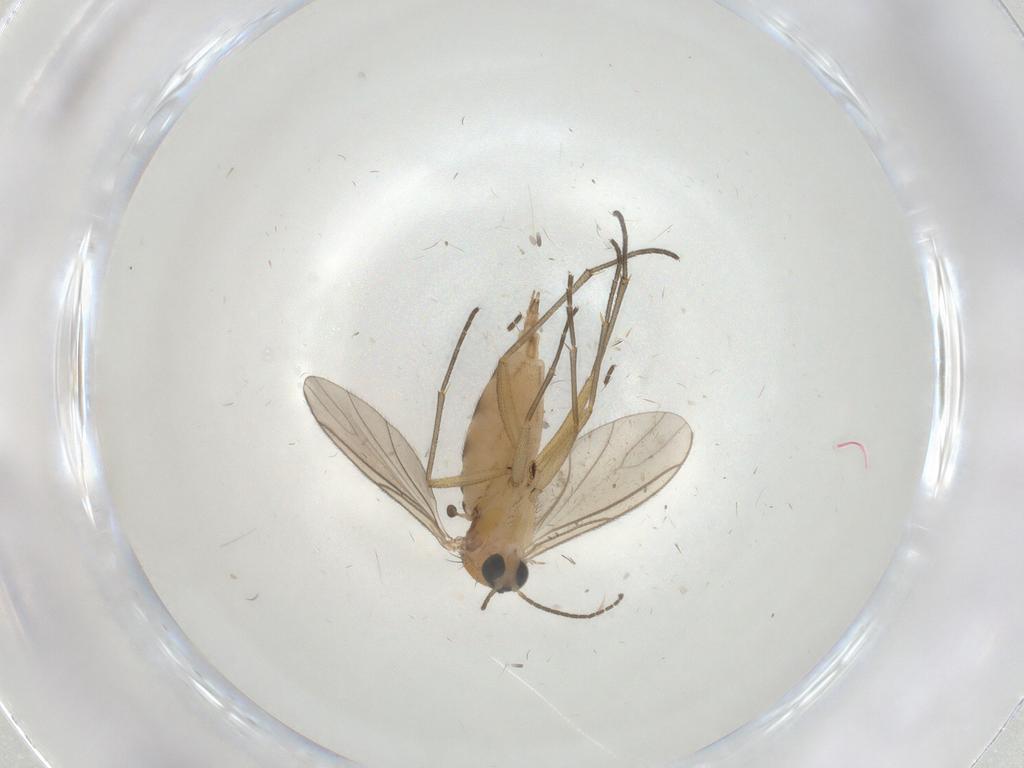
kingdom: Animalia
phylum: Arthropoda
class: Insecta
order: Diptera
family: Sciaridae
